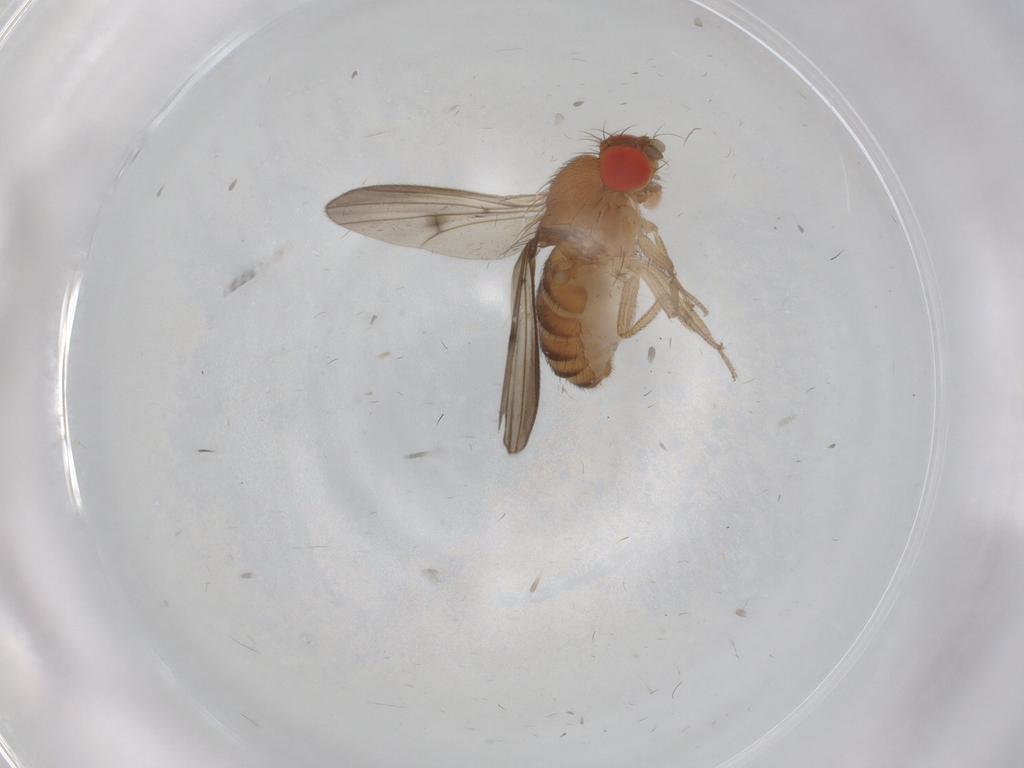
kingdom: Animalia
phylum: Arthropoda
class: Insecta
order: Diptera
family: Drosophilidae
